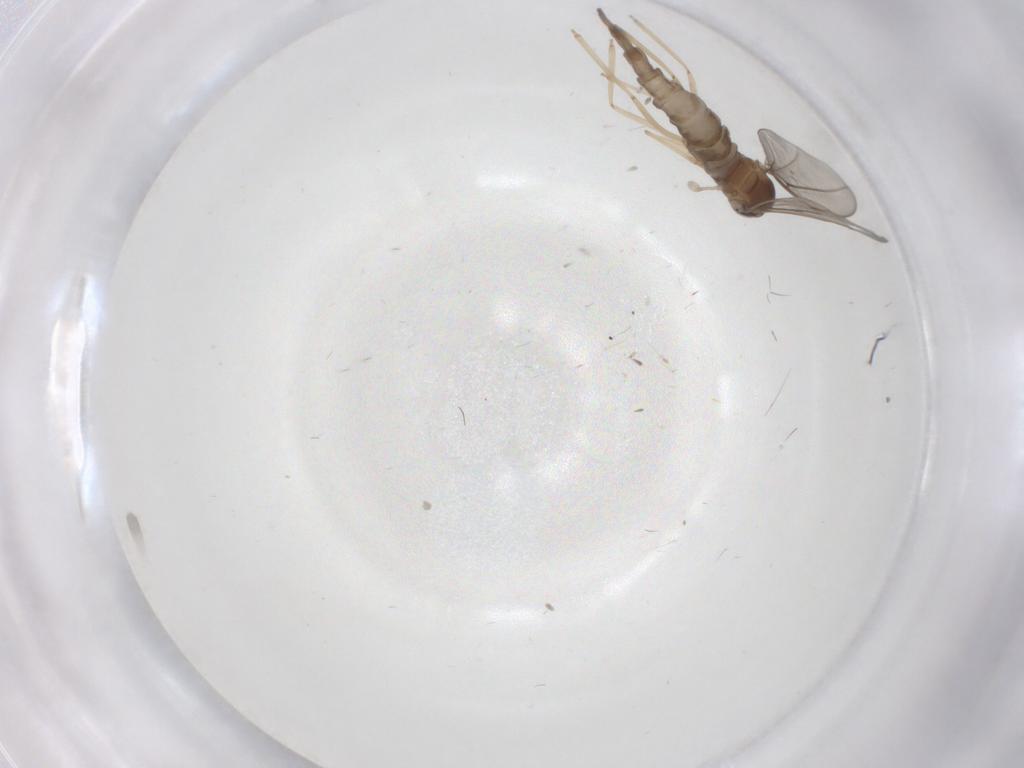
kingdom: Animalia
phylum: Arthropoda
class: Insecta
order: Diptera
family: Cecidomyiidae
